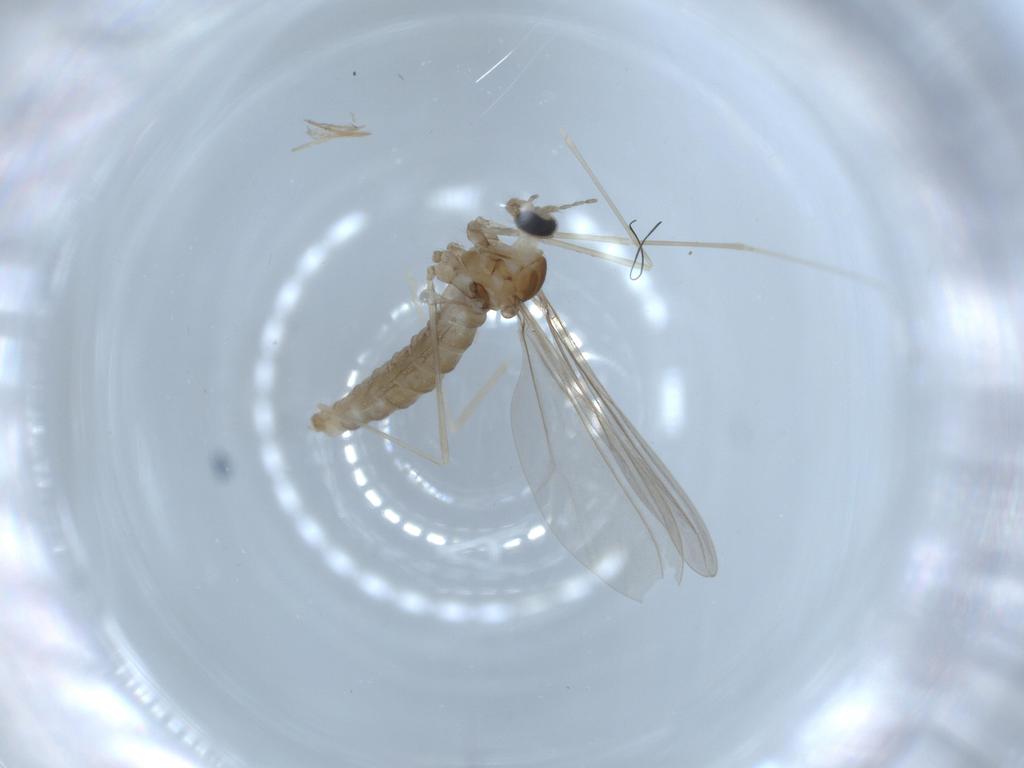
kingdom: Animalia
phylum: Arthropoda
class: Insecta
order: Diptera
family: Cecidomyiidae
